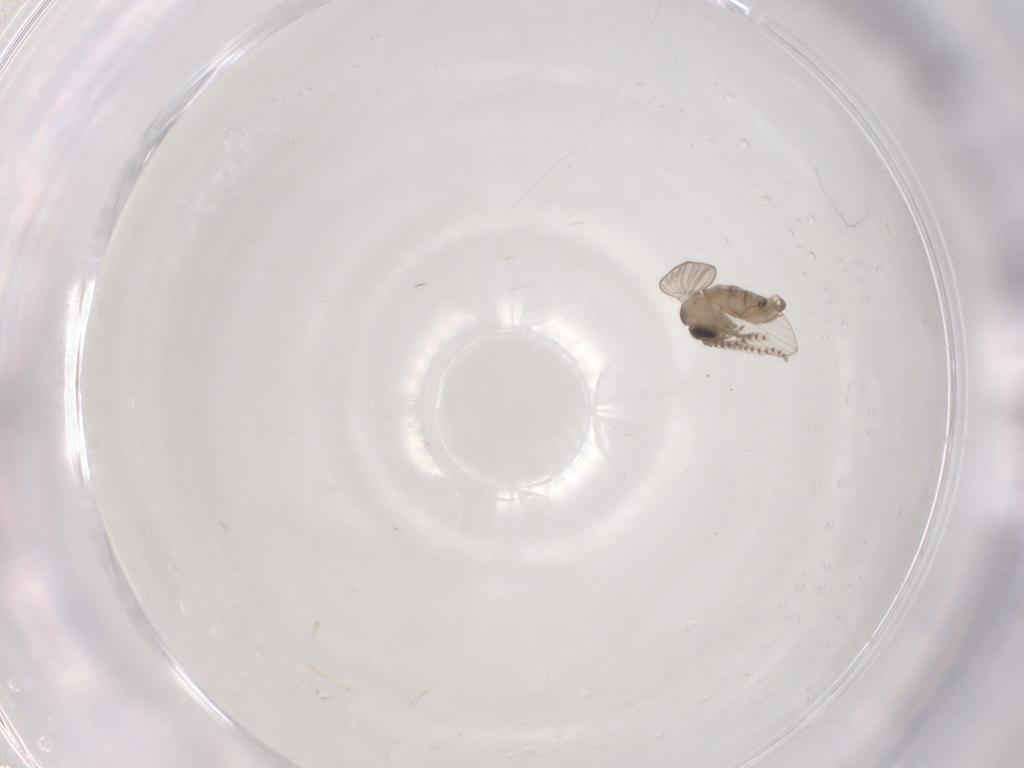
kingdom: Animalia
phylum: Arthropoda
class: Insecta
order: Diptera
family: Psychodidae
